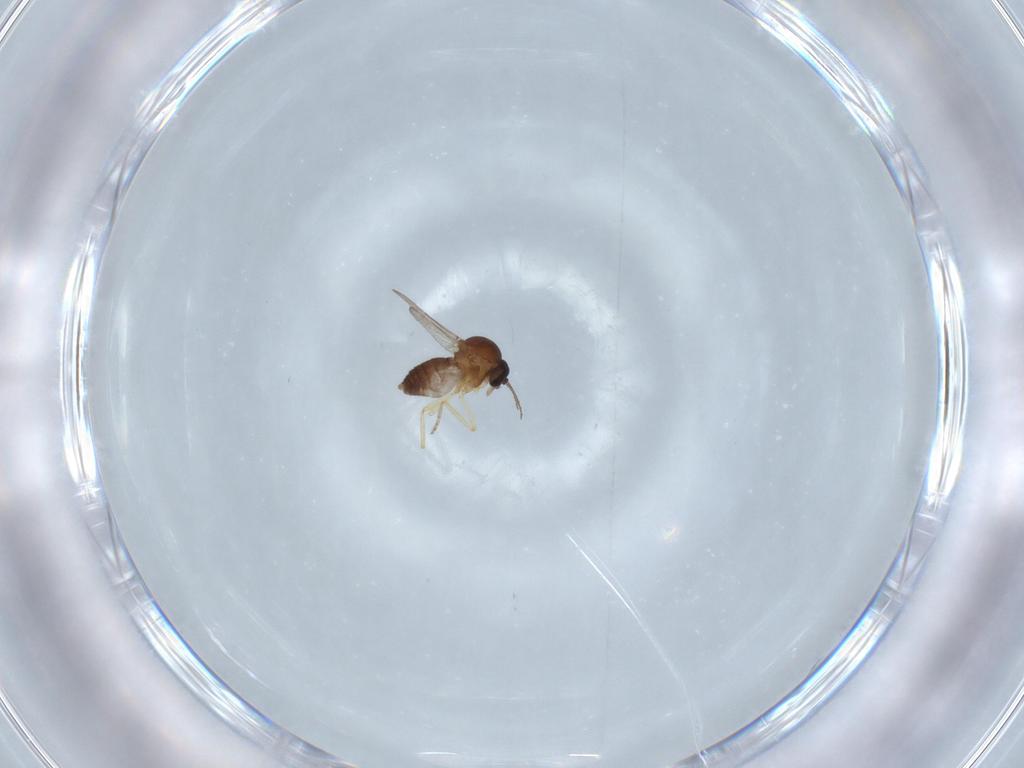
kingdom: Animalia
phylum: Arthropoda
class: Insecta
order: Diptera
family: Ceratopogonidae
